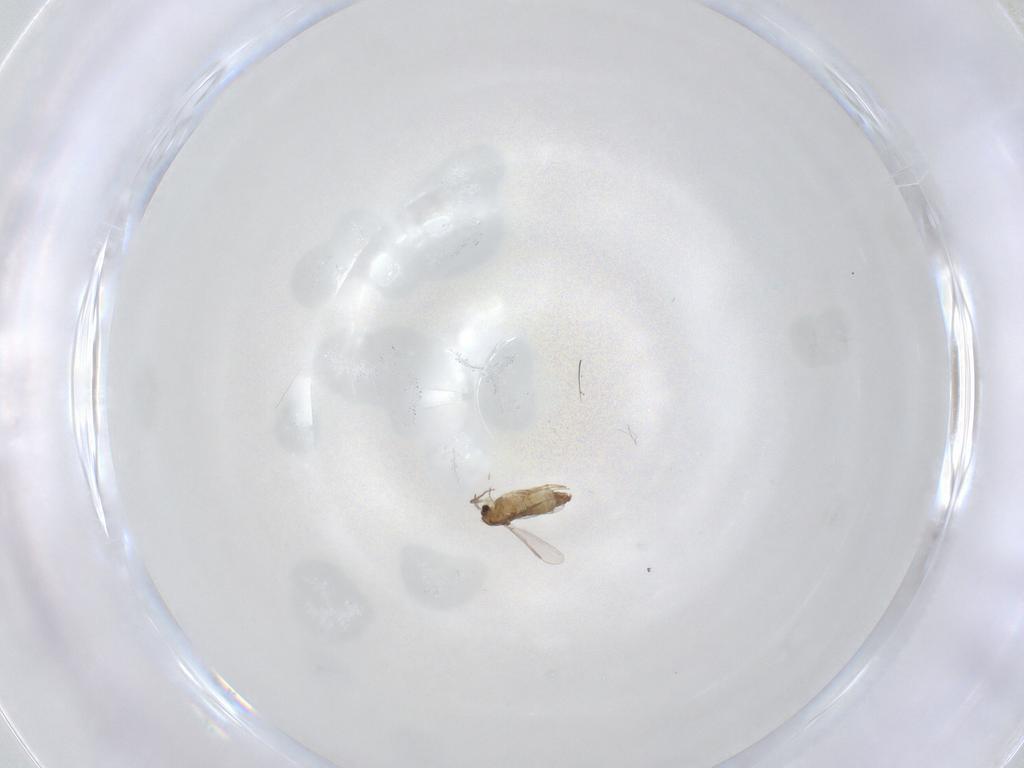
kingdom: Animalia
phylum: Arthropoda
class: Insecta
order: Diptera
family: Chironomidae
